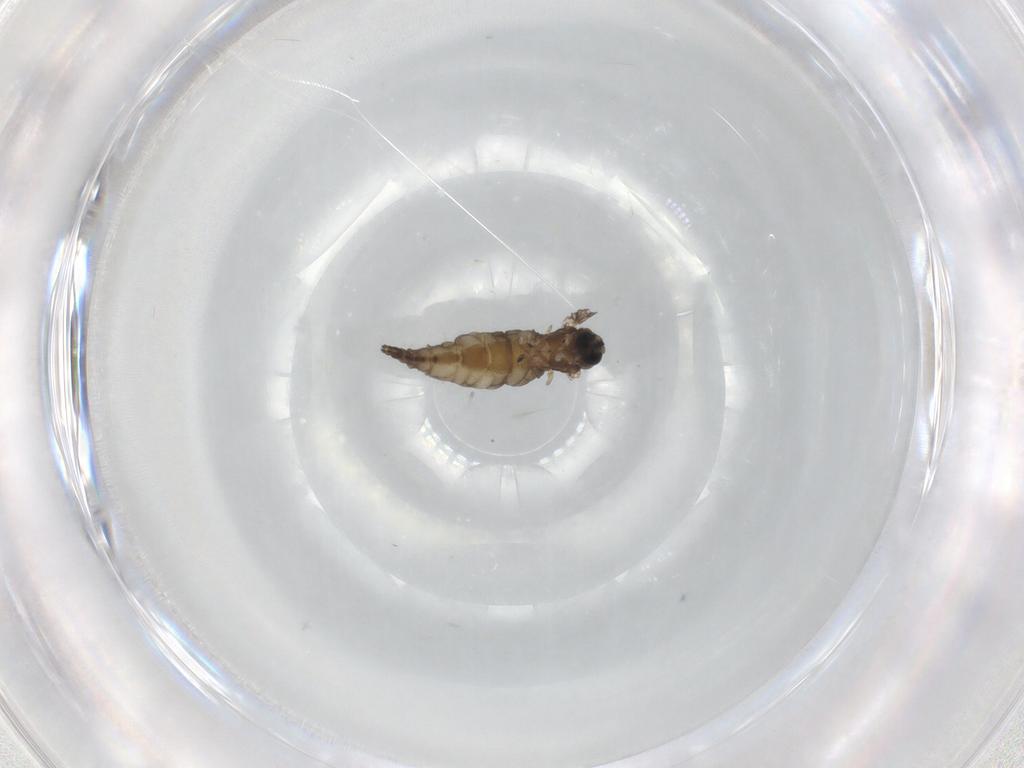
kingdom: Animalia
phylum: Arthropoda
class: Insecta
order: Diptera
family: Sciaridae
